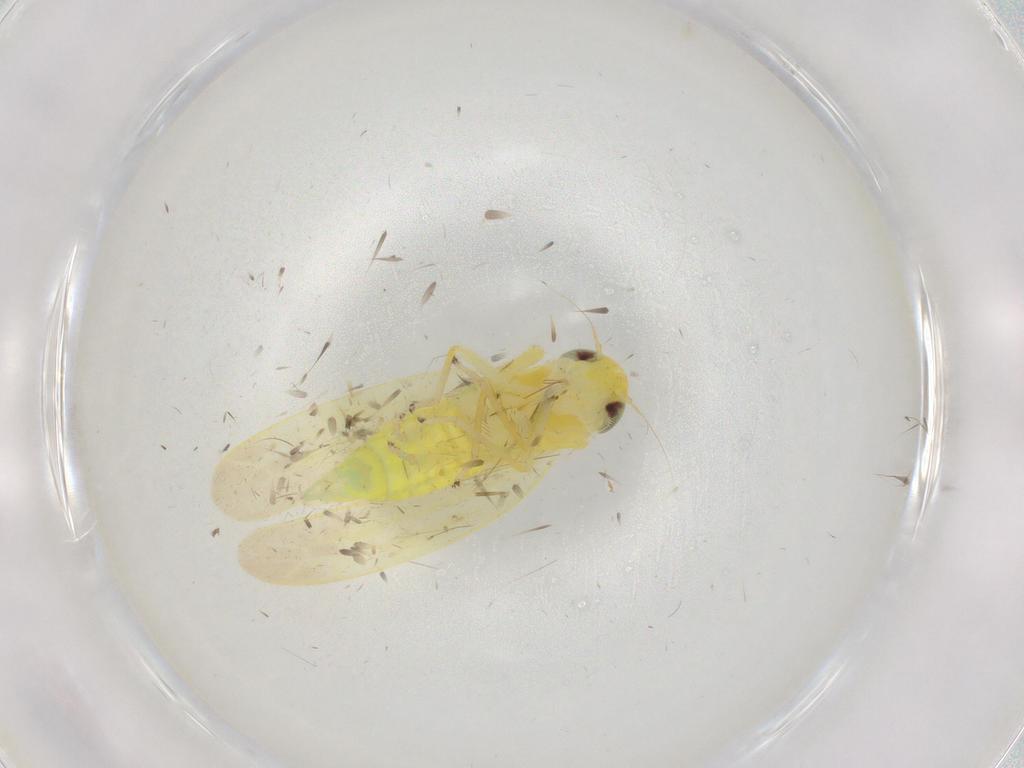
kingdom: Animalia
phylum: Arthropoda
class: Insecta
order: Hemiptera
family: Cicadellidae
